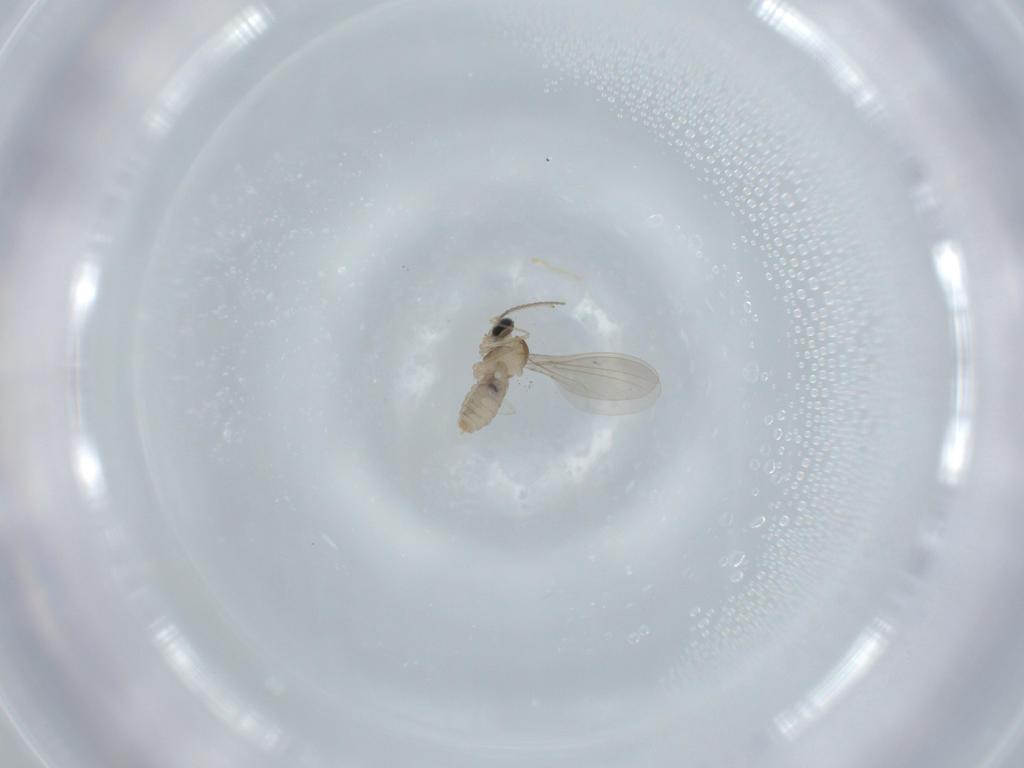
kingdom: Animalia
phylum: Arthropoda
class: Insecta
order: Diptera
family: Cecidomyiidae
